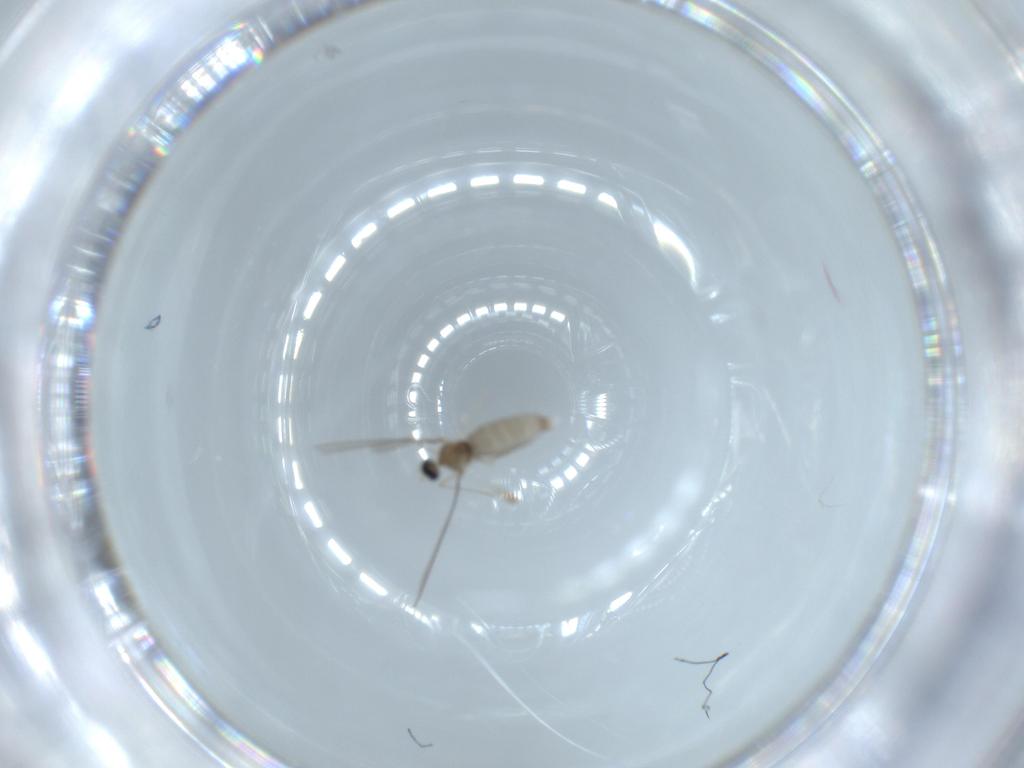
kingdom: Animalia
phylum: Arthropoda
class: Insecta
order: Diptera
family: Cecidomyiidae
